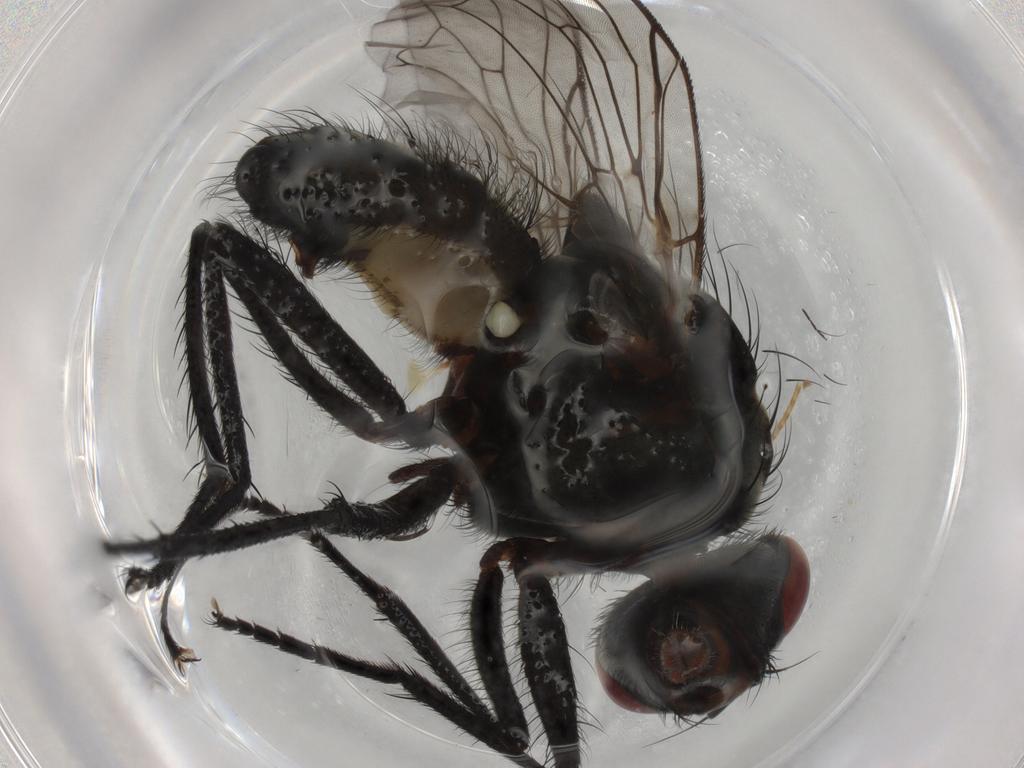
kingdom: Animalia
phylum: Arthropoda
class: Insecta
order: Diptera
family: Anthomyiidae
